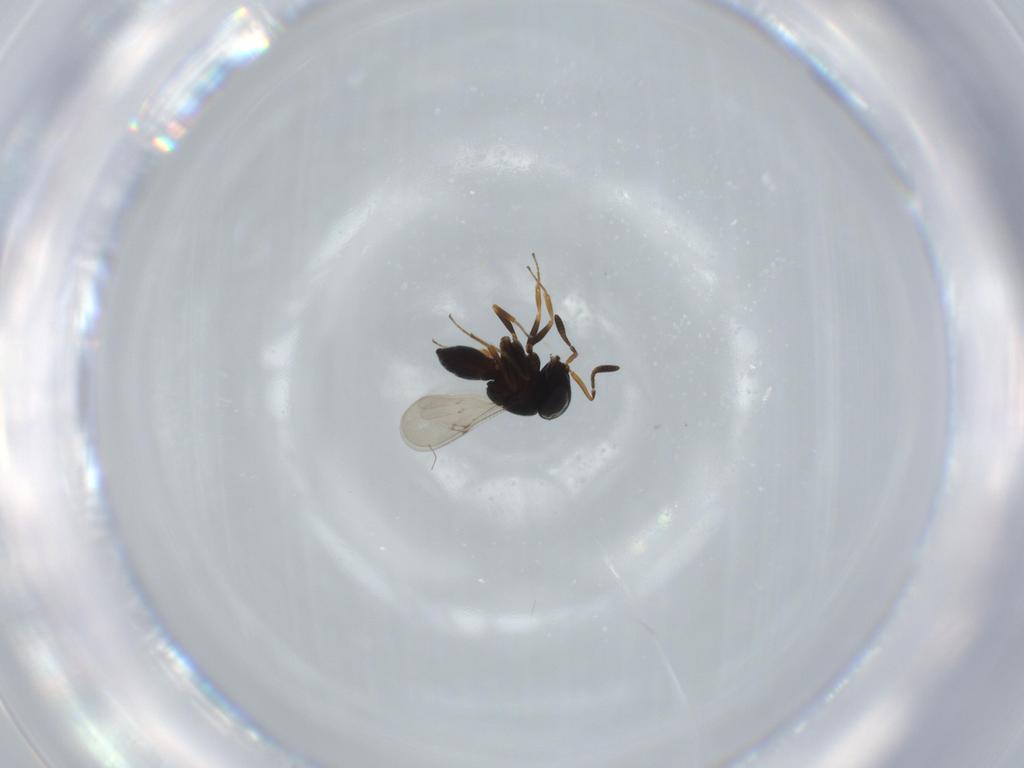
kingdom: Animalia
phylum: Arthropoda
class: Insecta
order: Hymenoptera
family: Scelionidae
